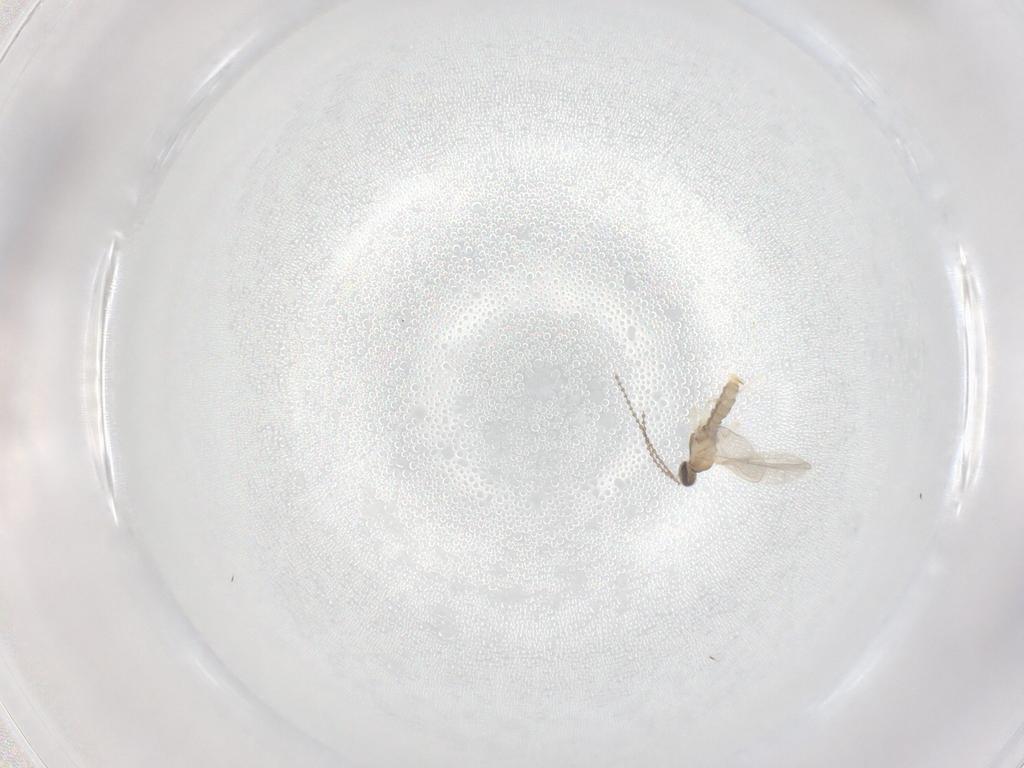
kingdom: Animalia
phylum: Arthropoda
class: Insecta
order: Diptera
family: Cecidomyiidae
